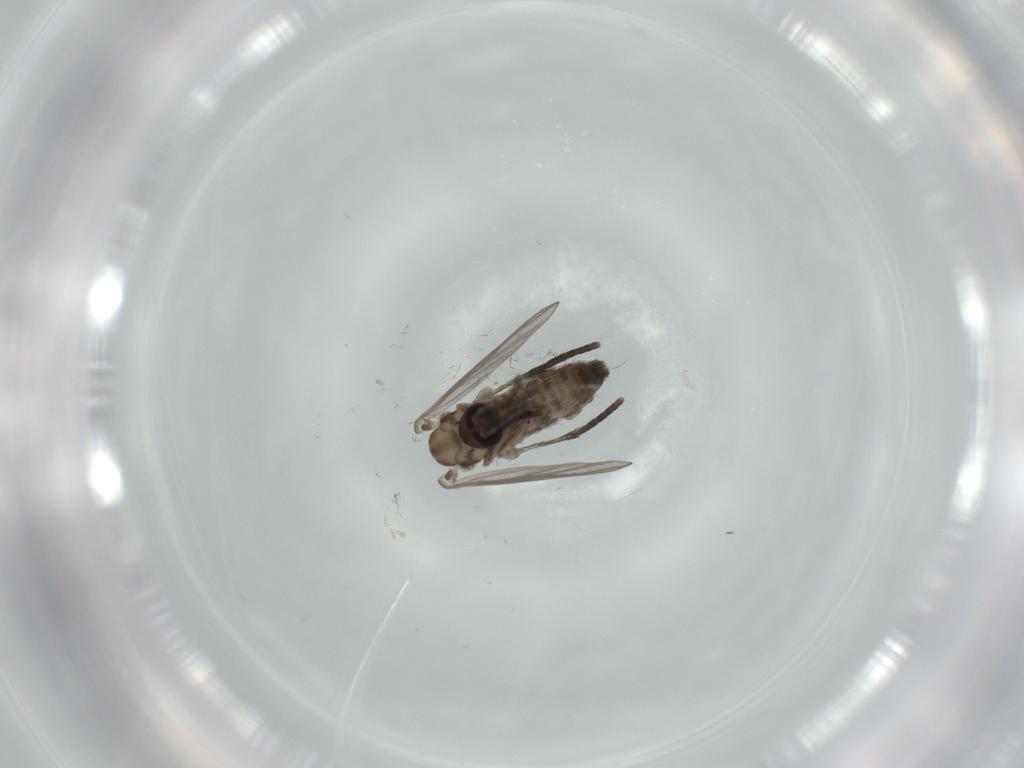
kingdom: Animalia
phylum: Arthropoda
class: Insecta
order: Diptera
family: Psychodidae
